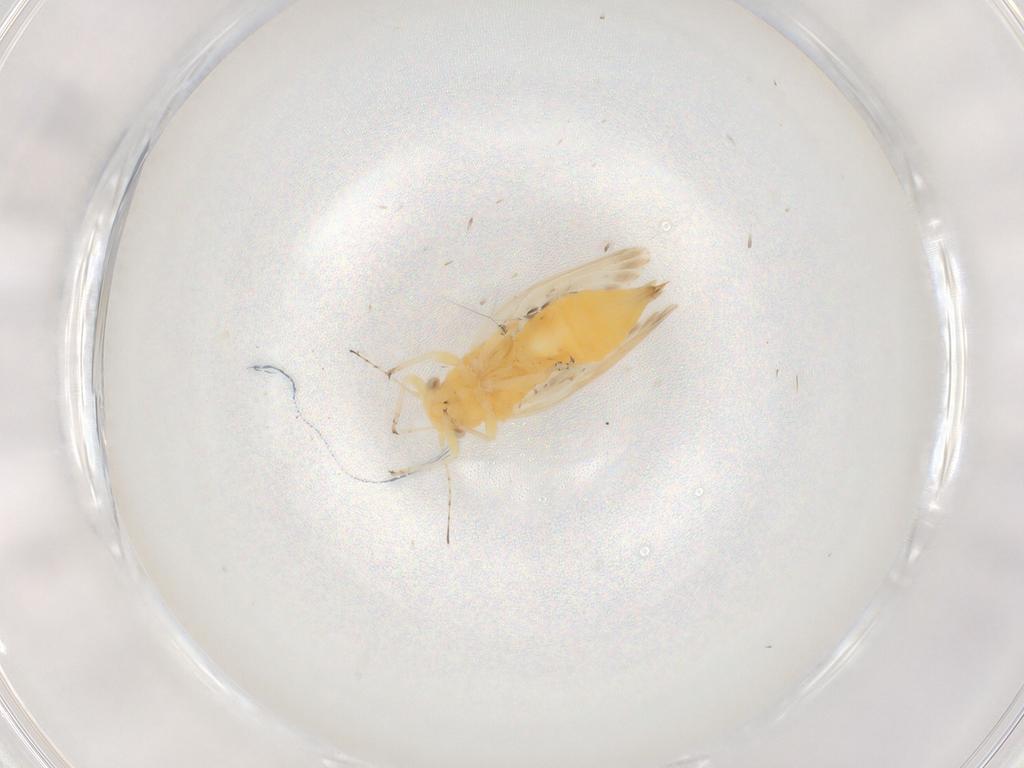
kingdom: Animalia
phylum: Arthropoda
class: Insecta
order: Hemiptera
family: Psyllidae
